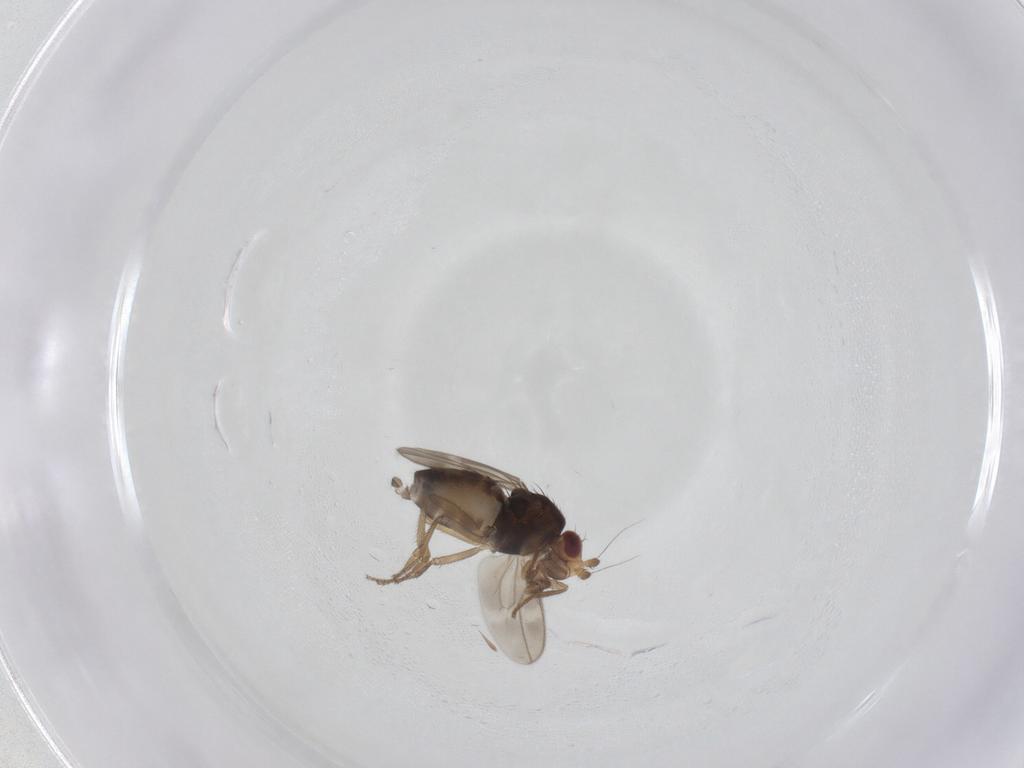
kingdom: Animalia
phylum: Arthropoda
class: Insecta
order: Diptera
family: Sphaeroceridae
